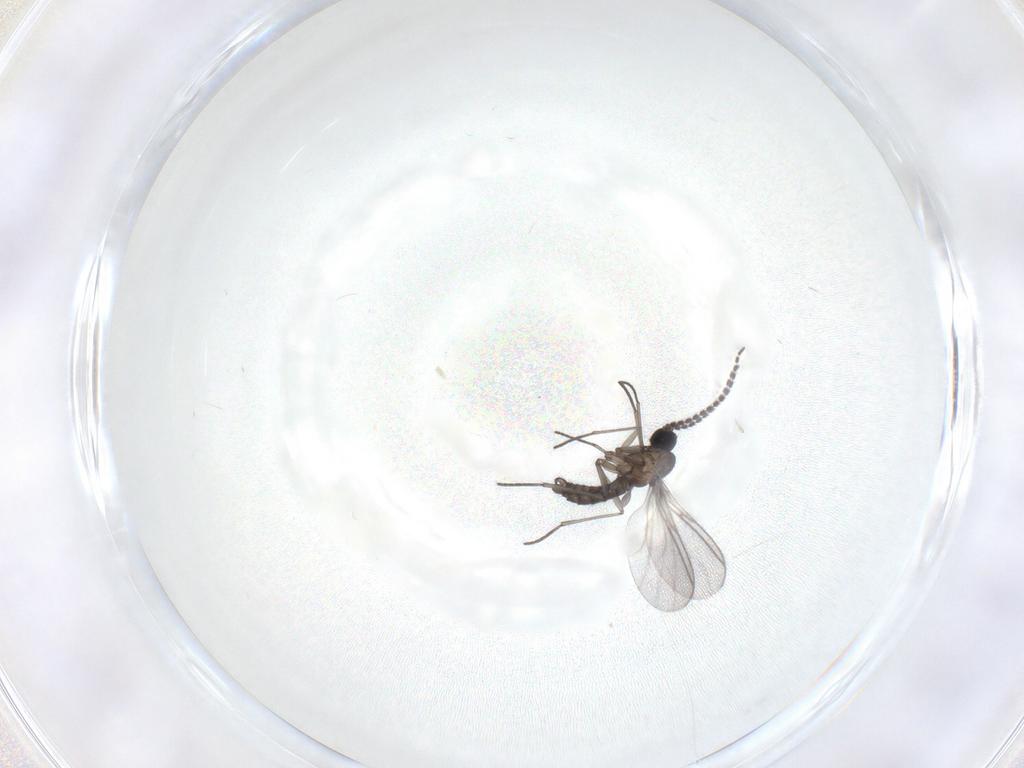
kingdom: Animalia
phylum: Arthropoda
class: Insecta
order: Diptera
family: Sciaridae
